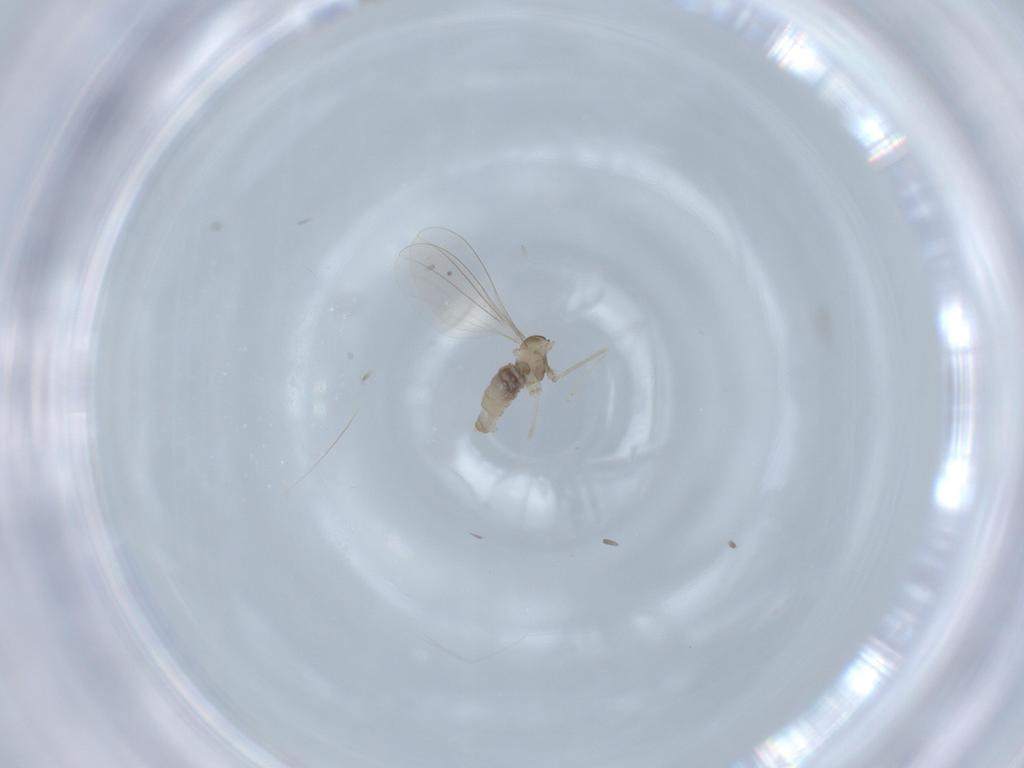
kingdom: Animalia
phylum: Arthropoda
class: Insecta
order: Diptera
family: Cecidomyiidae
